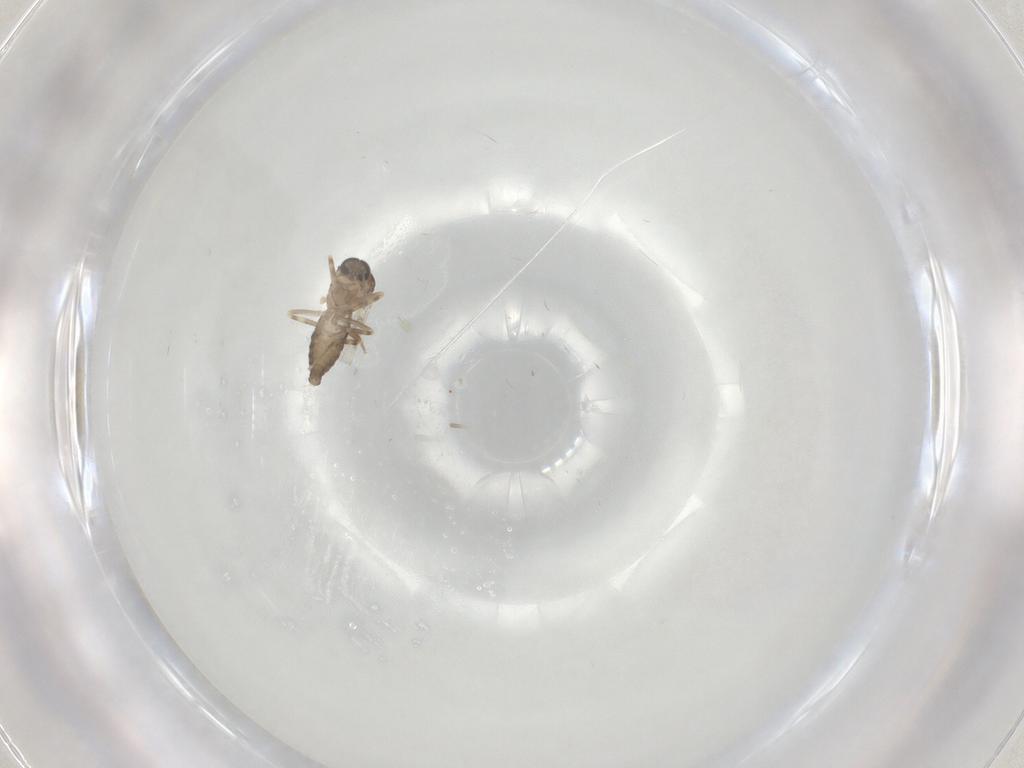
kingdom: Animalia
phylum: Arthropoda
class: Insecta
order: Diptera
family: Ceratopogonidae
